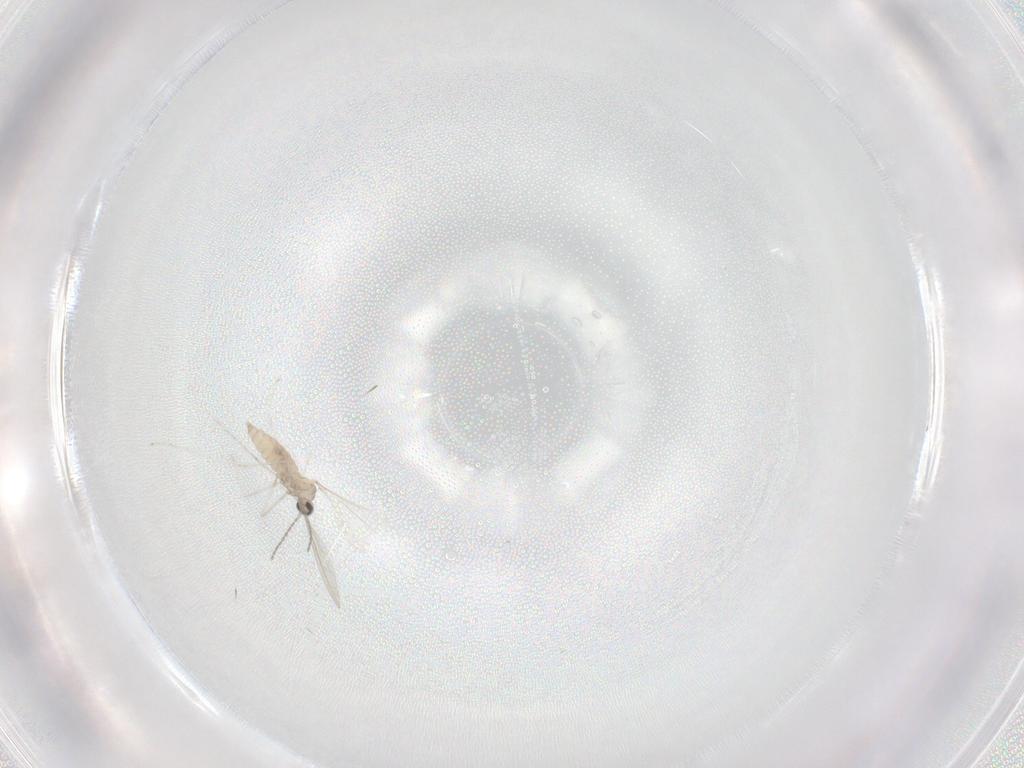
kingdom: Animalia
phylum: Arthropoda
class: Insecta
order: Diptera
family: Cecidomyiidae
